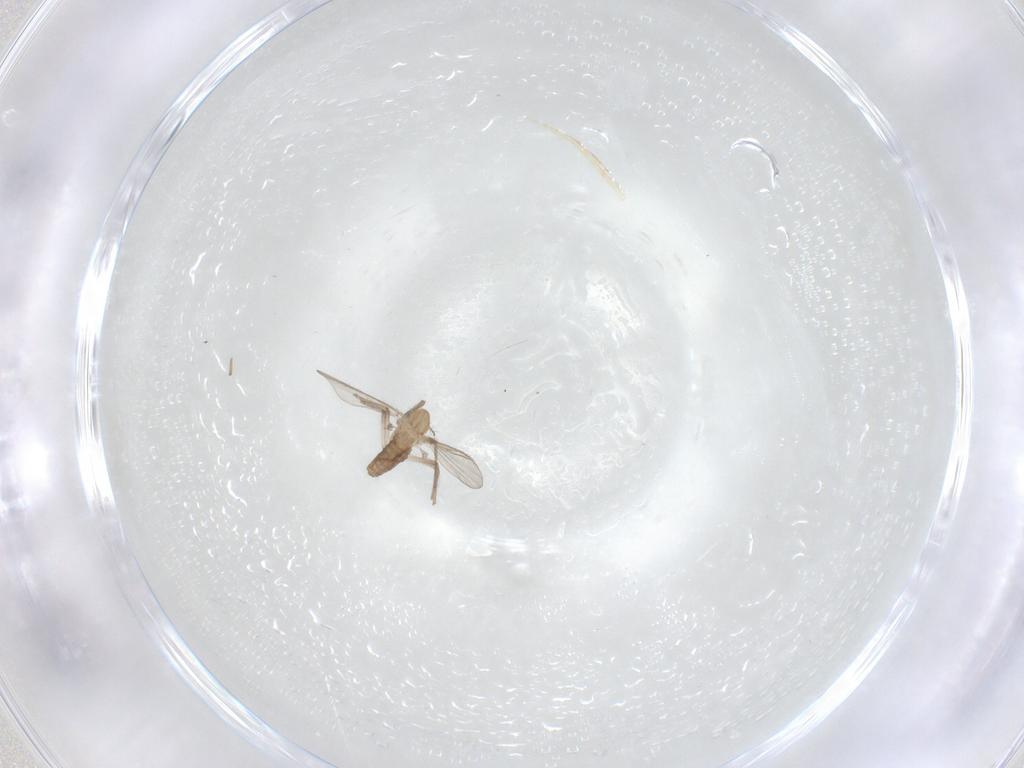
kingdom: Animalia
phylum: Arthropoda
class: Insecta
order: Diptera
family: Chironomidae
